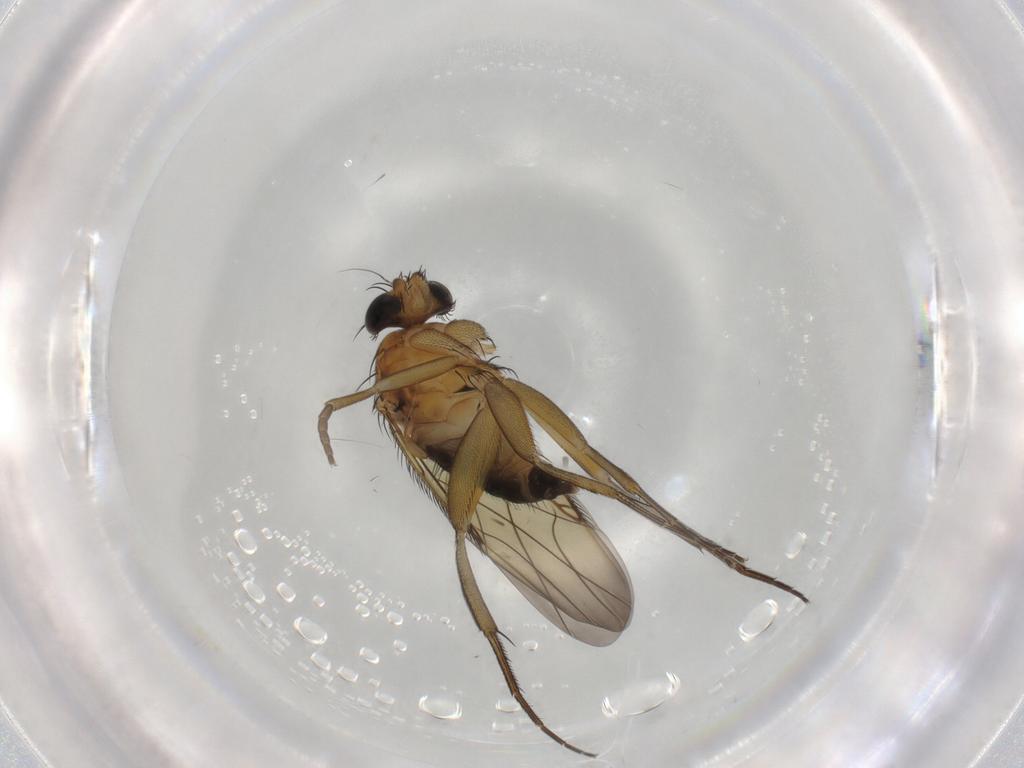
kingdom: Animalia
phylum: Arthropoda
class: Insecta
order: Diptera
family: Phoridae
